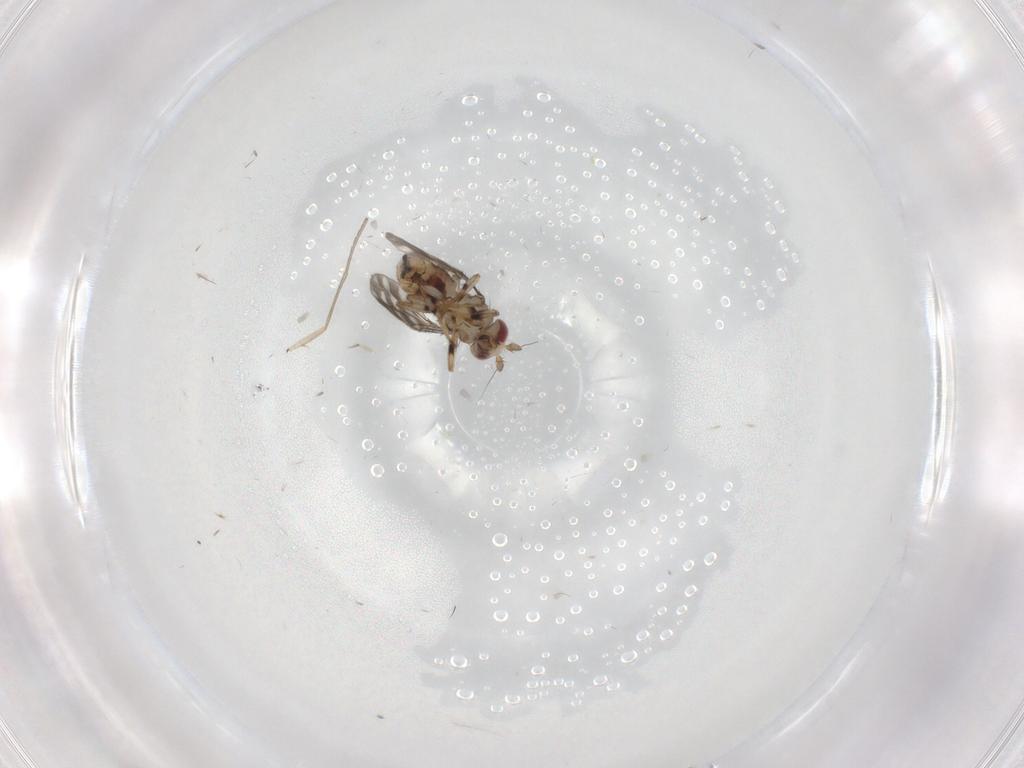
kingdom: Animalia
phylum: Arthropoda
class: Insecta
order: Diptera
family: Sphaeroceridae
